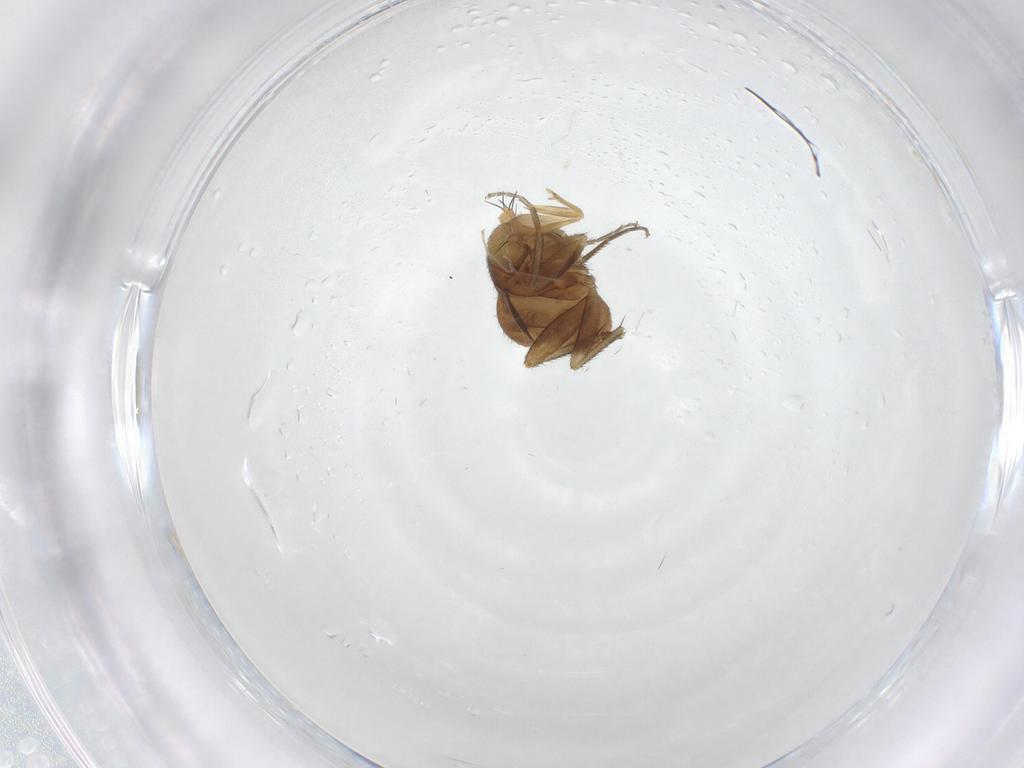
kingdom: Animalia
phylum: Arthropoda
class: Insecta
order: Diptera
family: Phoridae
